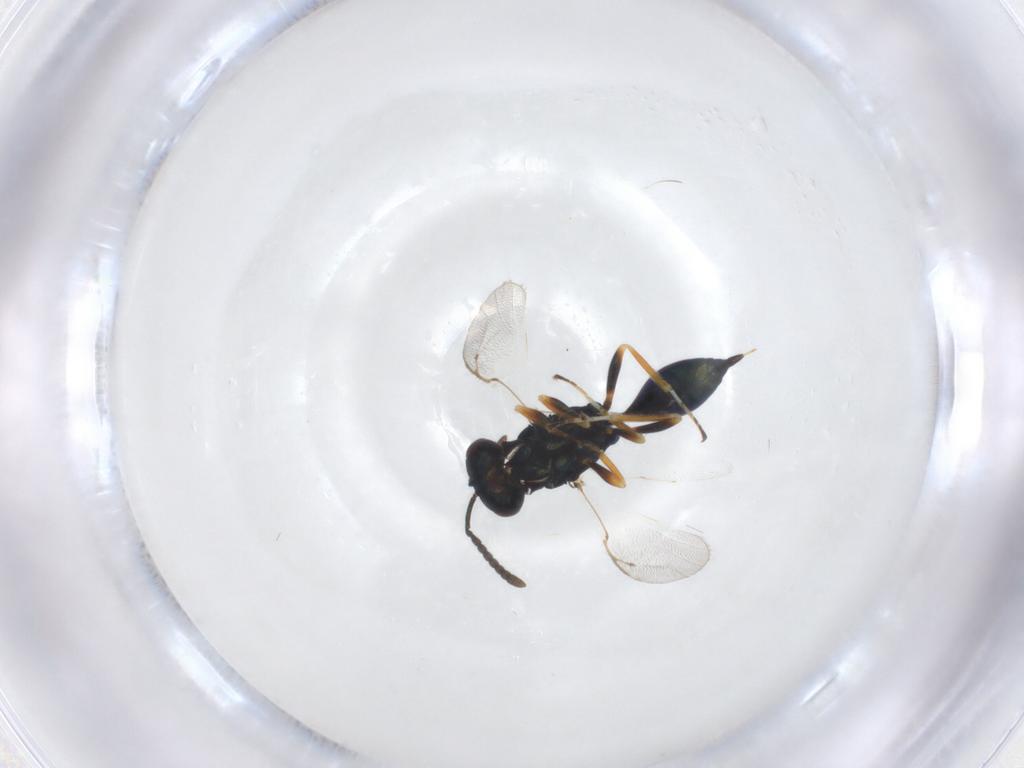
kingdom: Animalia
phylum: Arthropoda
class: Insecta
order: Hymenoptera
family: Pteromalidae
